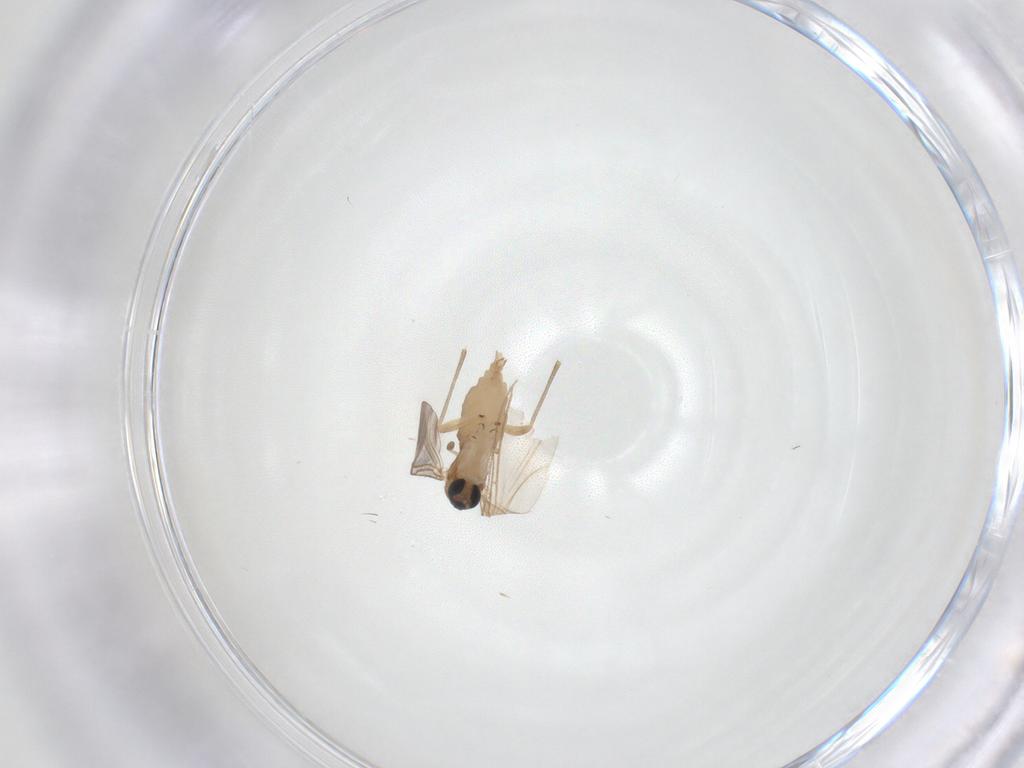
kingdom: Animalia
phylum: Arthropoda
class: Insecta
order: Diptera
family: Sciaridae
